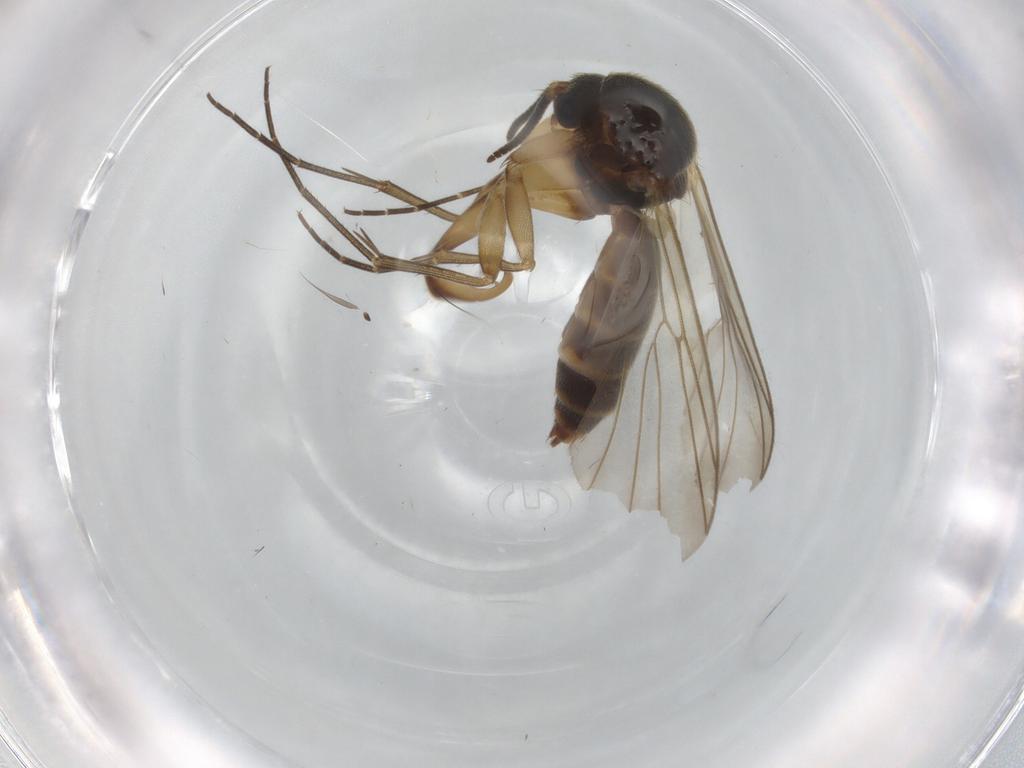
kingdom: Animalia
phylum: Arthropoda
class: Insecta
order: Diptera
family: Mycetophilidae
